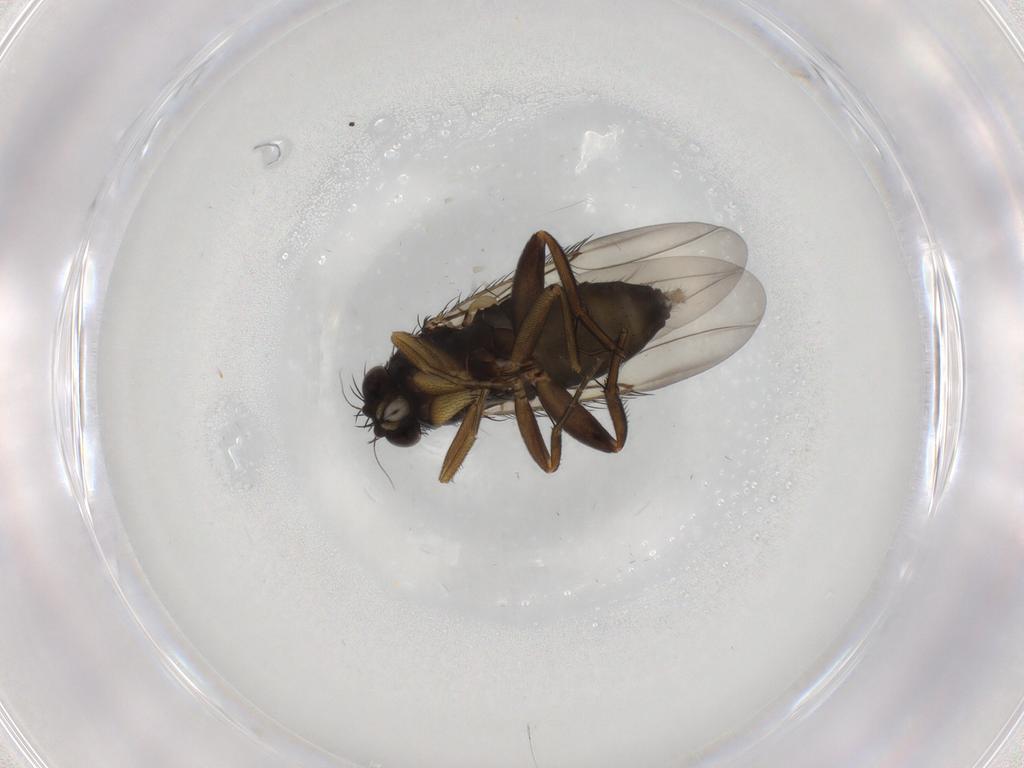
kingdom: Animalia
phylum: Arthropoda
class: Insecta
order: Diptera
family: Phoridae
